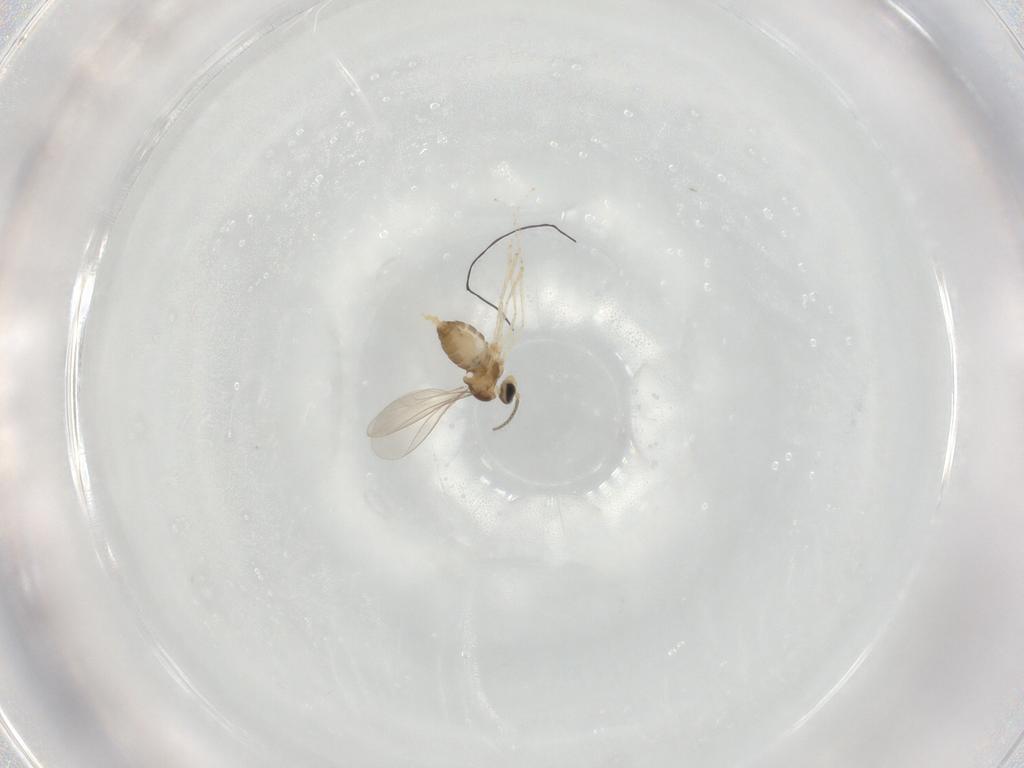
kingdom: Animalia
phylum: Arthropoda
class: Insecta
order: Diptera
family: Cecidomyiidae
